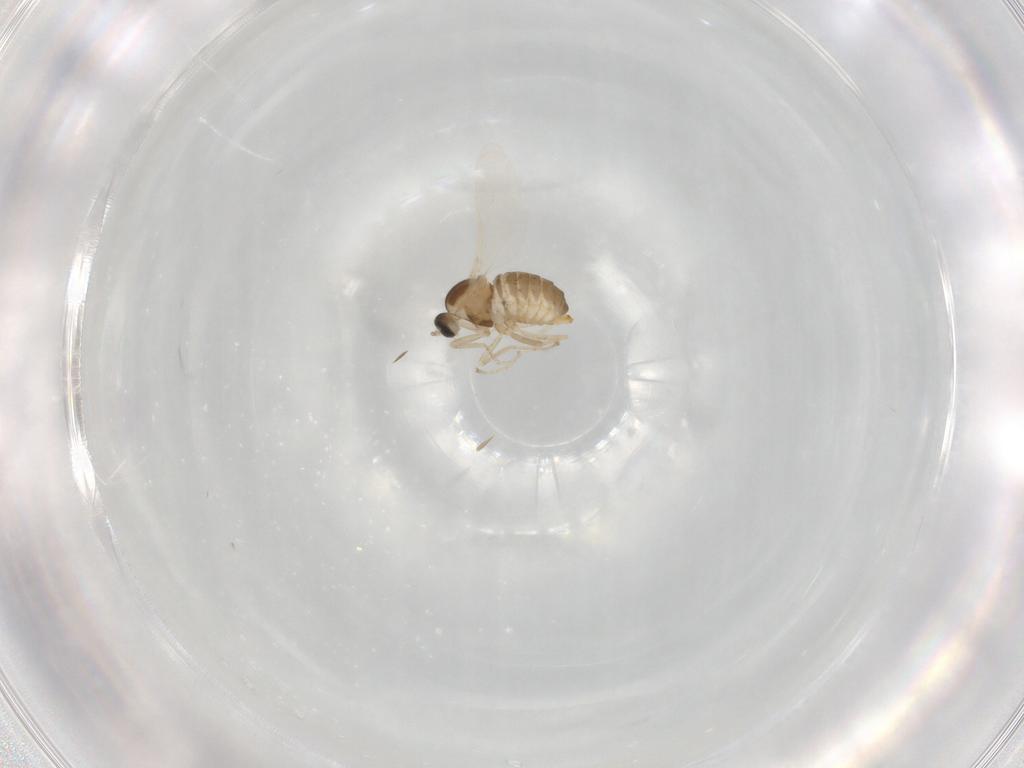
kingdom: Animalia
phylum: Arthropoda
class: Insecta
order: Diptera
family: Cecidomyiidae
